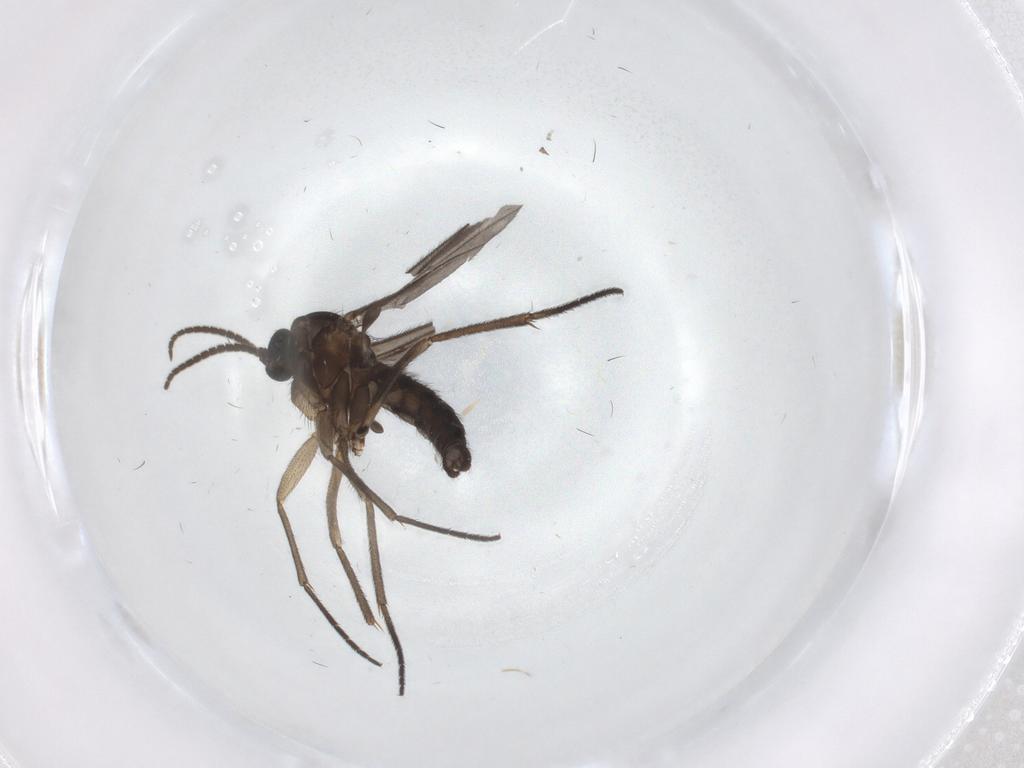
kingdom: Animalia
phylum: Arthropoda
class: Insecta
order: Diptera
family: Sciaridae
